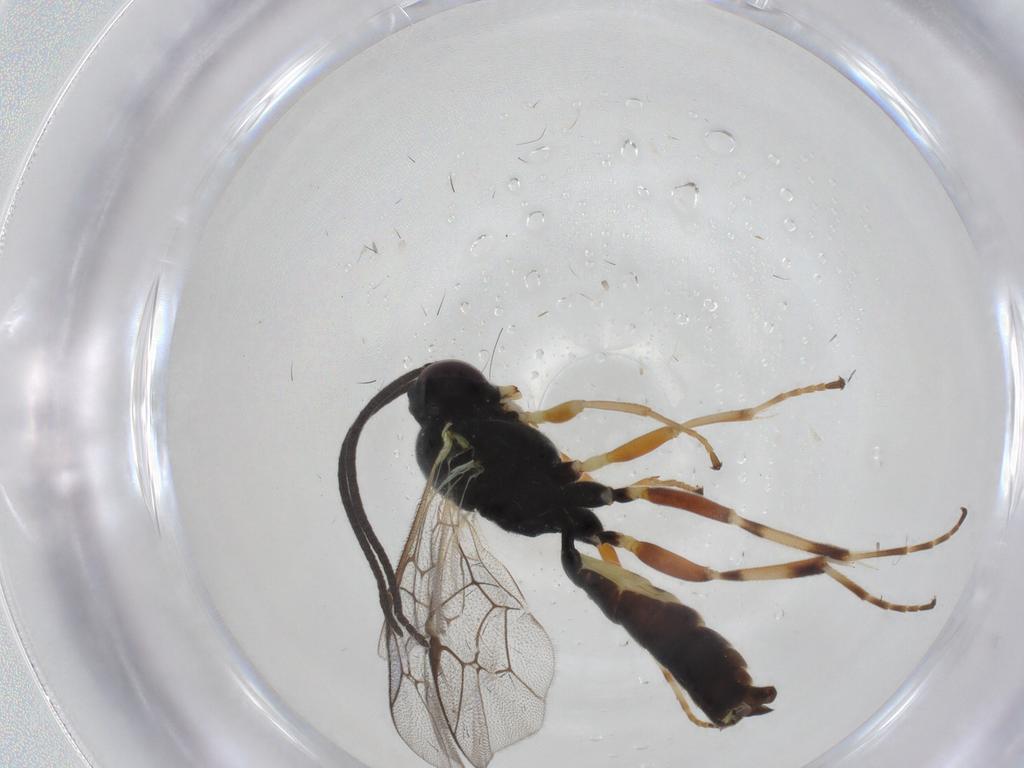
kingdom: Animalia
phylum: Arthropoda
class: Insecta
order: Hymenoptera
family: Ichneumonidae
